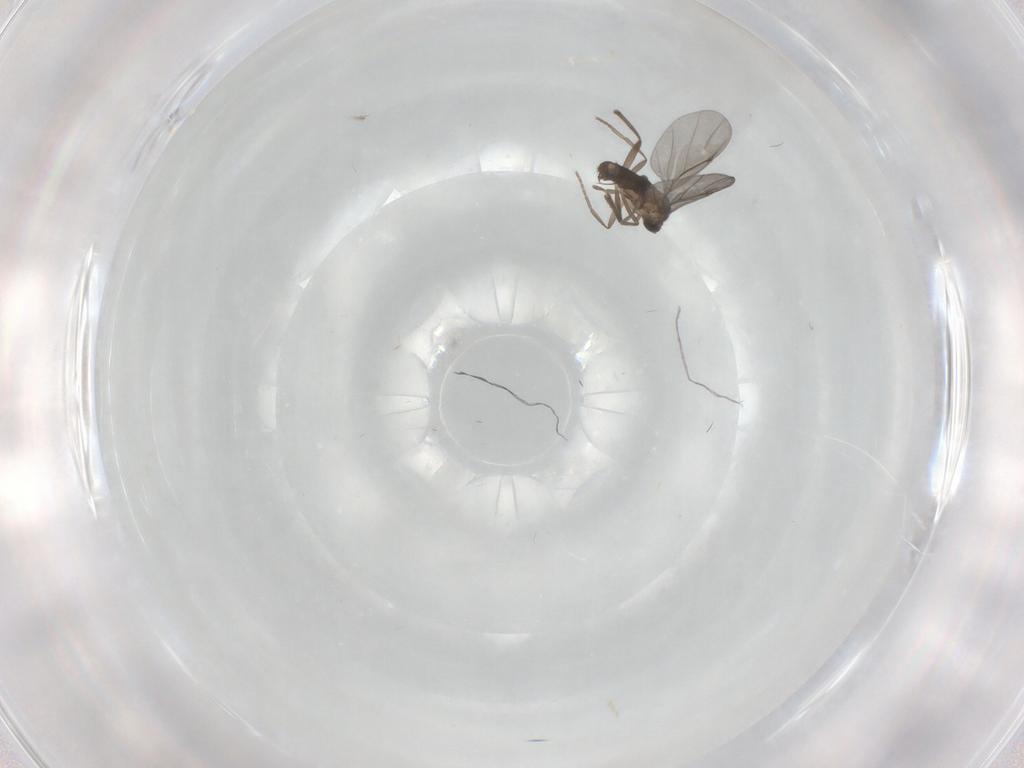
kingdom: Animalia
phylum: Arthropoda
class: Insecta
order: Diptera
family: Phoridae
